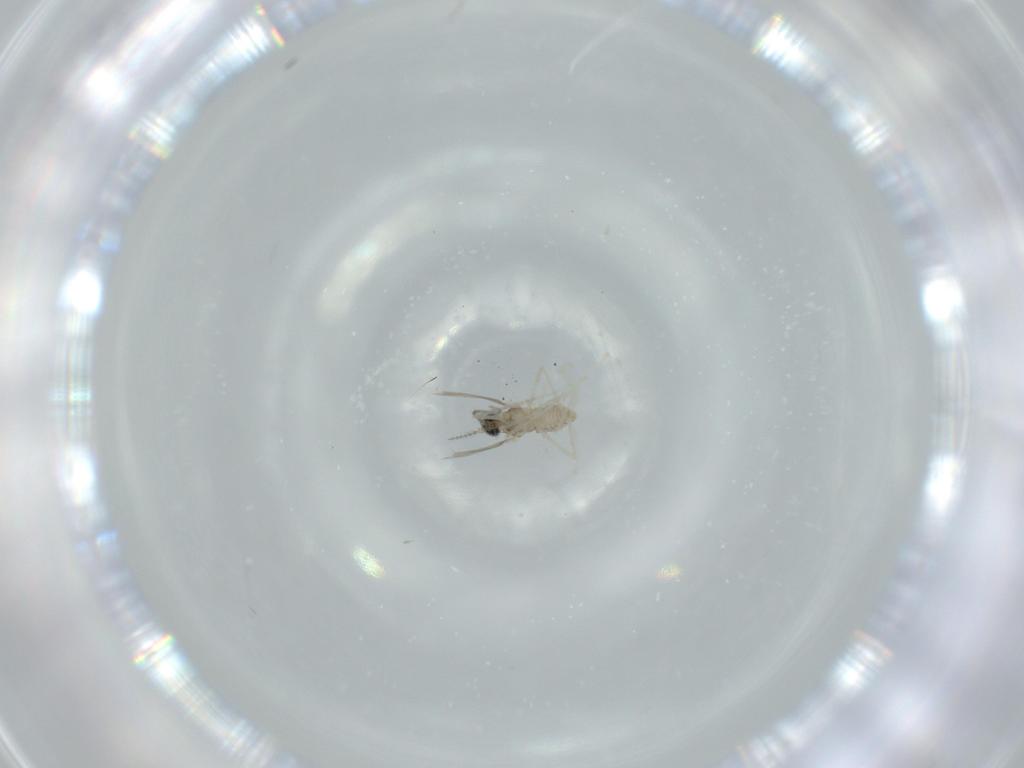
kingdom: Animalia
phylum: Arthropoda
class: Insecta
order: Diptera
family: Cecidomyiidae
